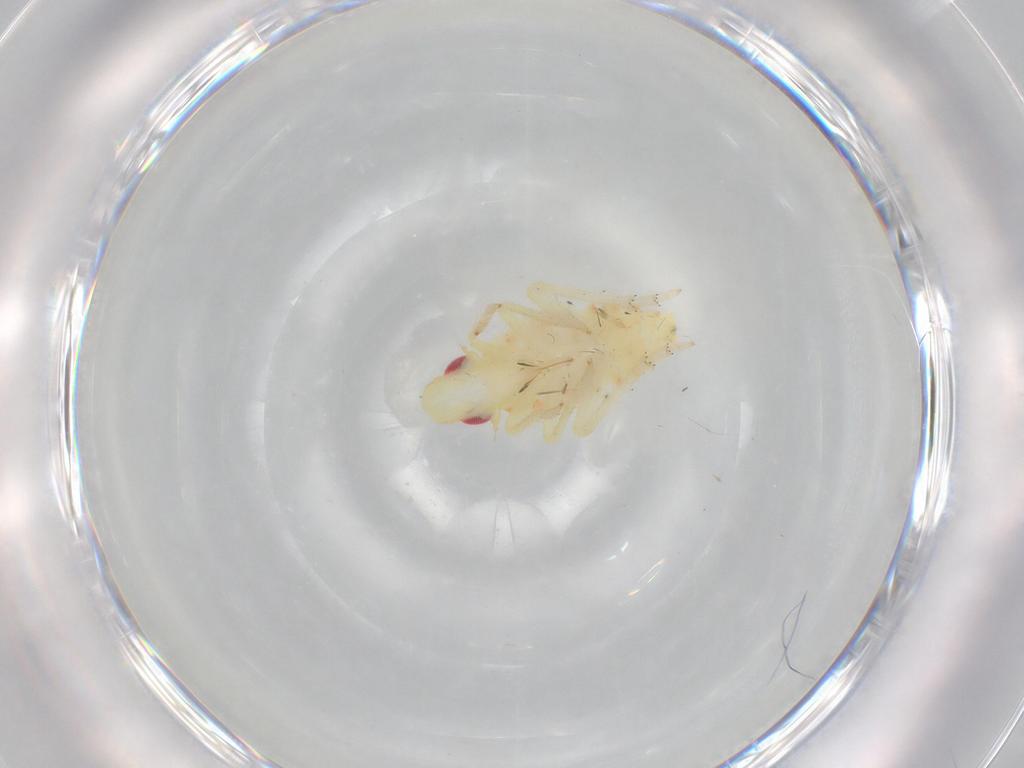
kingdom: Animalia
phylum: Arthropoda
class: Insecta
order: Hemiptera
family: Tropiduchidae
